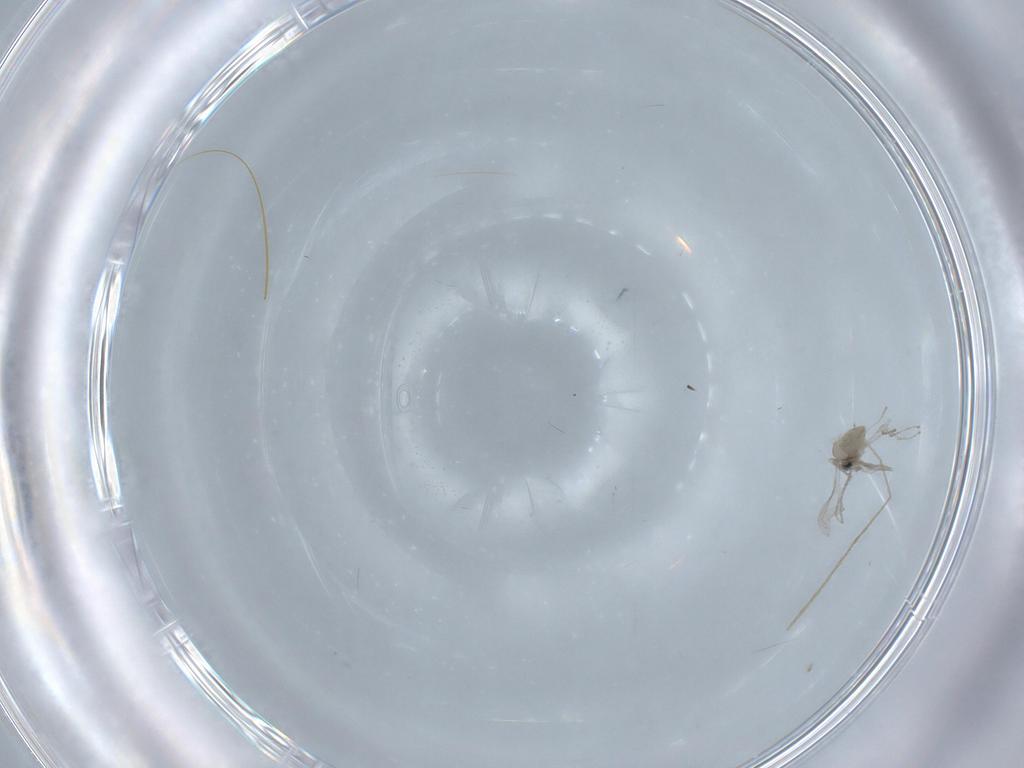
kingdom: Animalia
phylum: Arthropoda
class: Insecta
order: Diptera
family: Chironomidae
